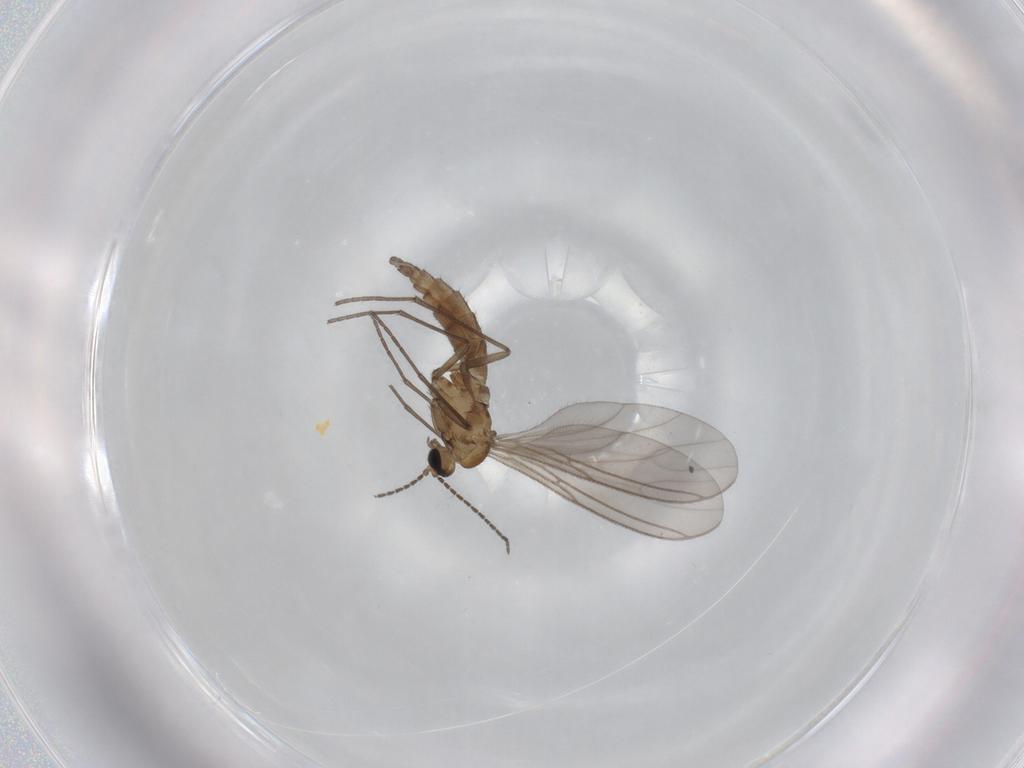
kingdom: Animalia
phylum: Arthropoda
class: Insecta
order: Diptera
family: Sciaridae
